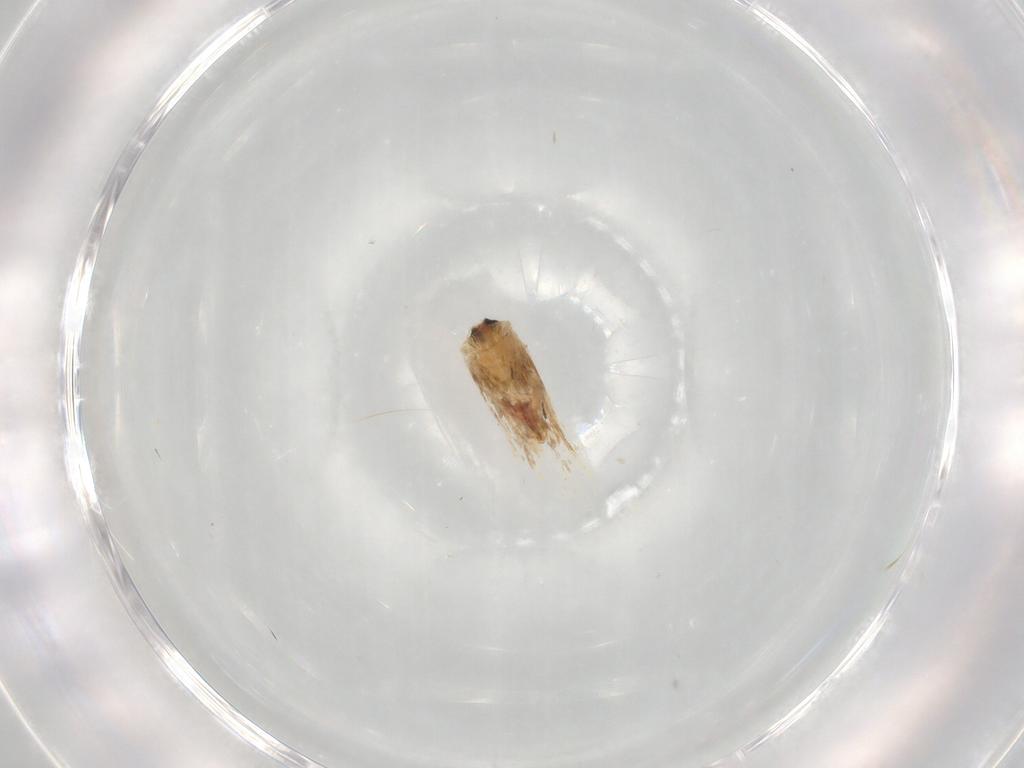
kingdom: Animalia
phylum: Arthropoda
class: Insecta
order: Lepidoptera
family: Nepticulidae
